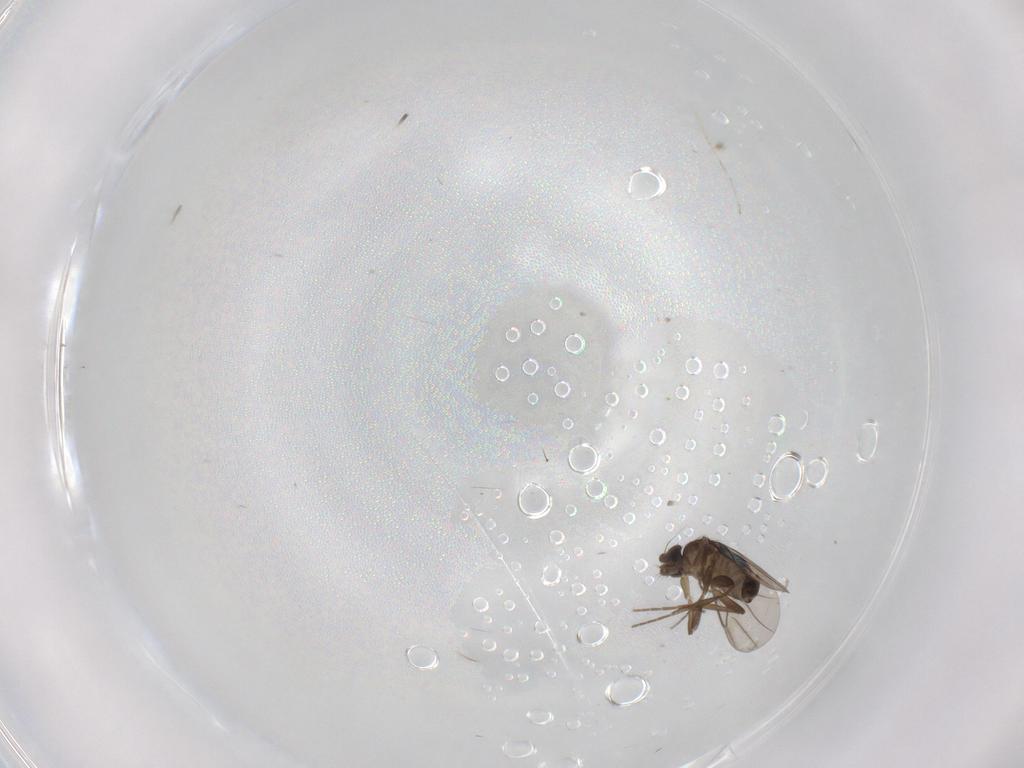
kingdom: Animalia
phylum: Arthropoda
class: Insecta
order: Diptera
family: Phoridae
